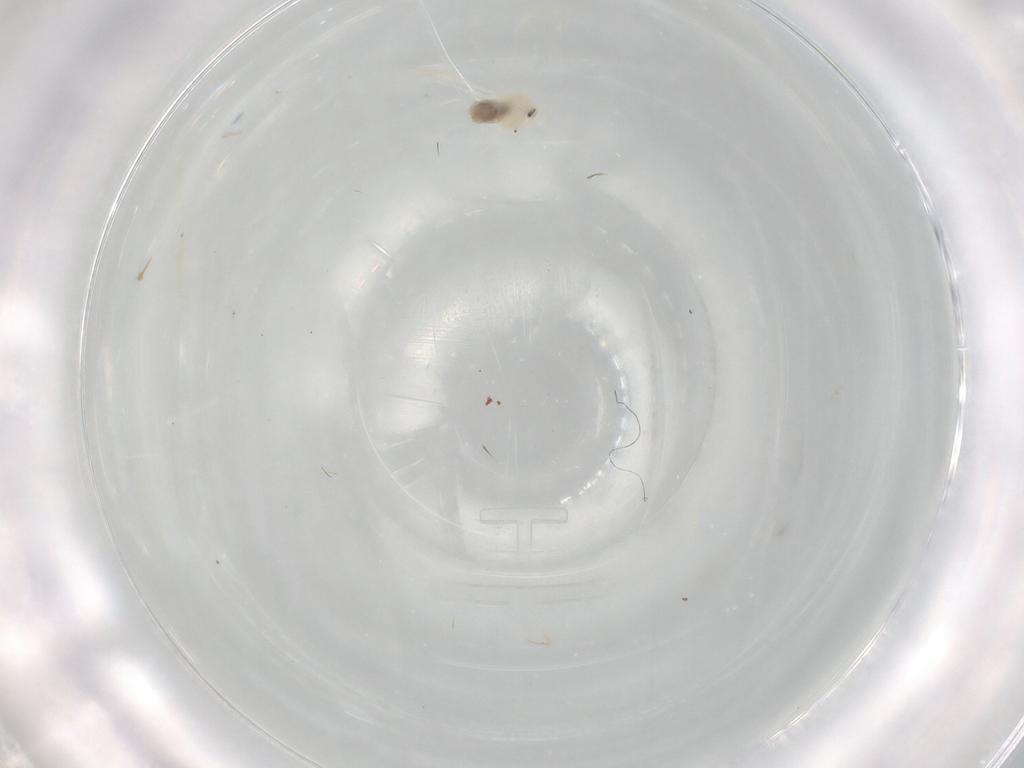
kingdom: Animalia
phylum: Arthropoda
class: Insecta
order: Hemiptera
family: Aleyrodidae
